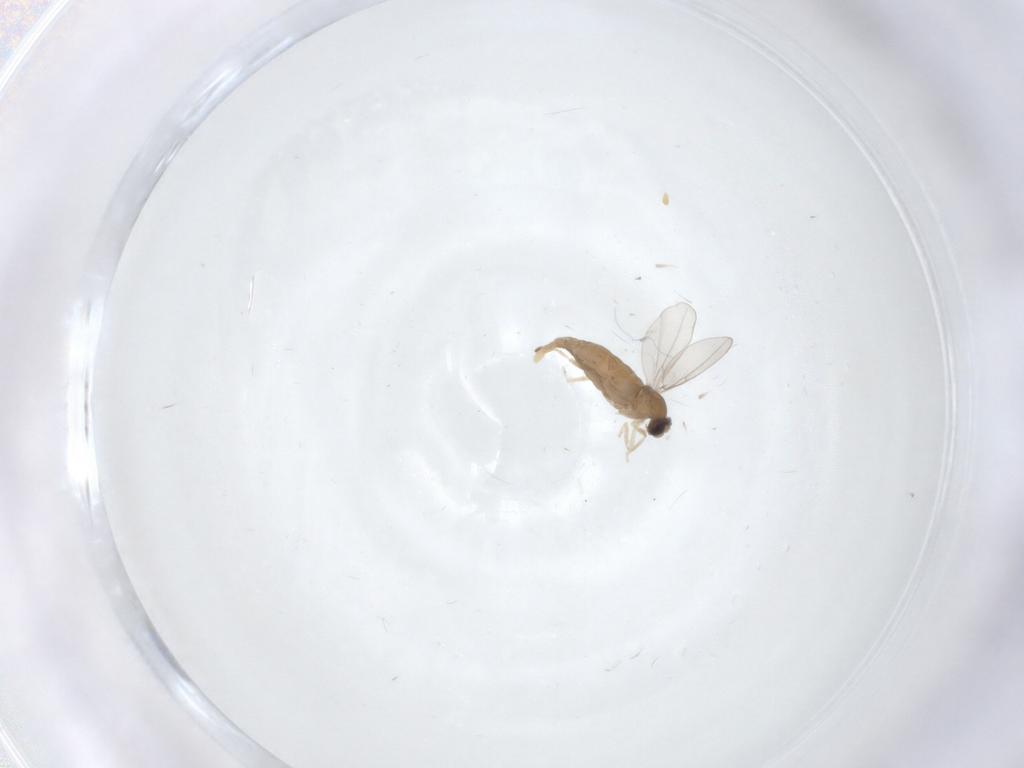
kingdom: Animalia
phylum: Arthropoda
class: Insecta
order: Diptera
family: Cecidomyiidae
